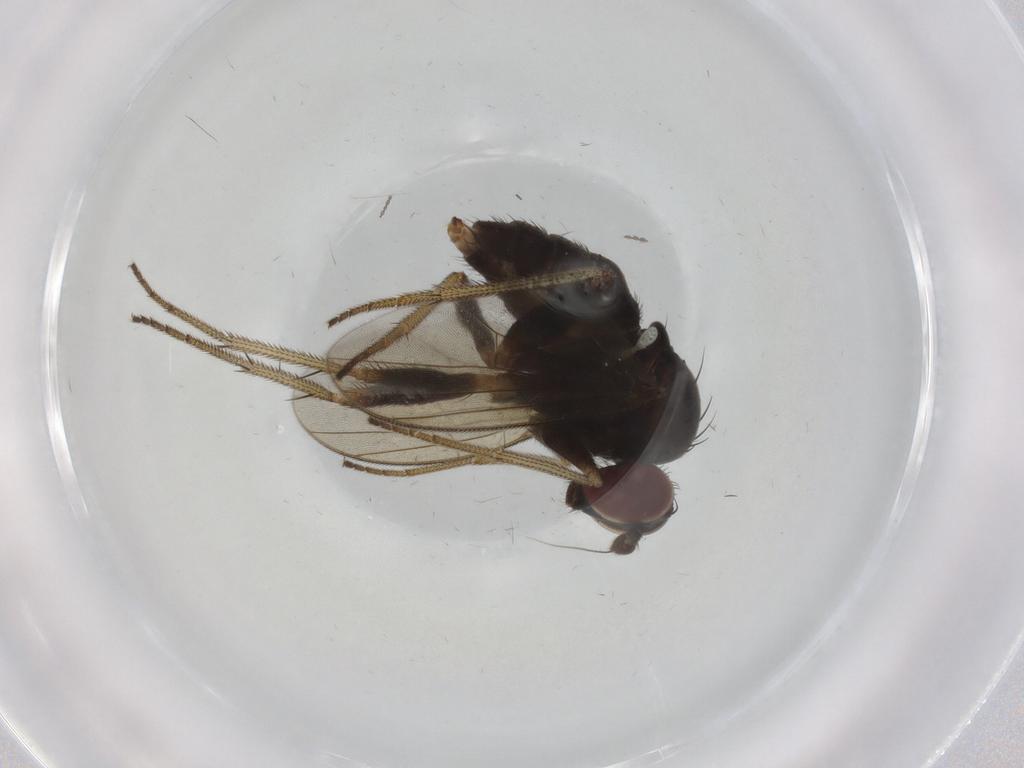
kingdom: Animalia
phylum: Arthropoda
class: Insecta
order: Diptera
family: Dolichopodidae
